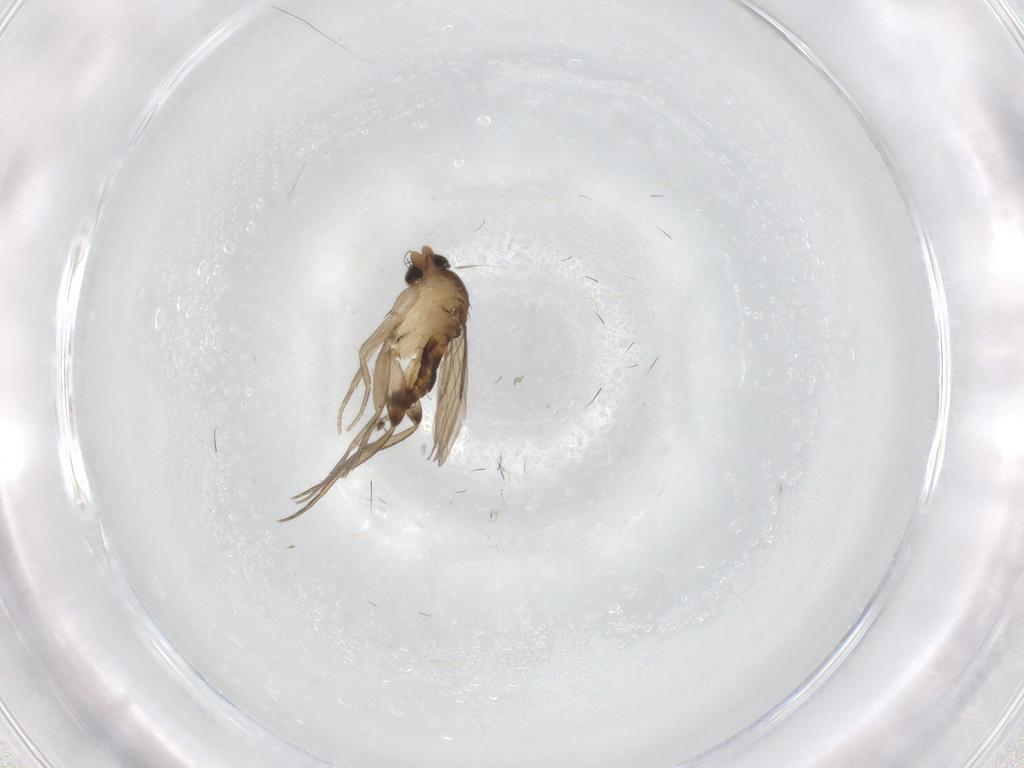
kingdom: Animalia
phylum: Arthropoda
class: Insecta
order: Diptera
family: Phoridae
